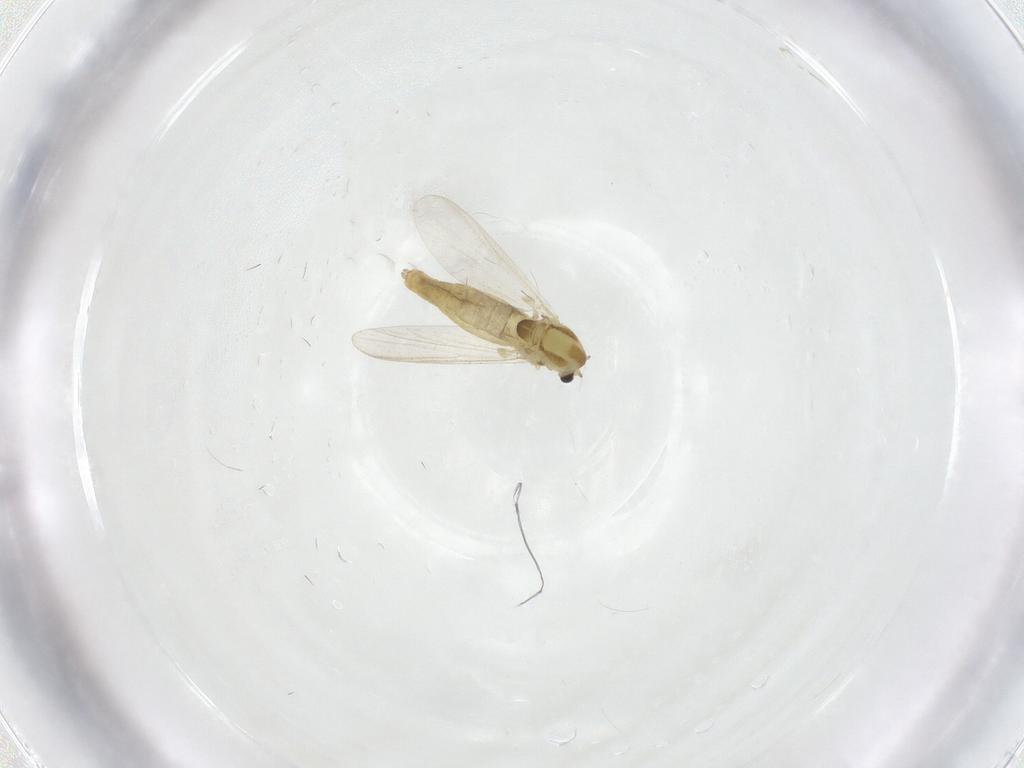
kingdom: Animalia
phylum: Arthropoda
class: Insecta
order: Diptera
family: Chironomidae
